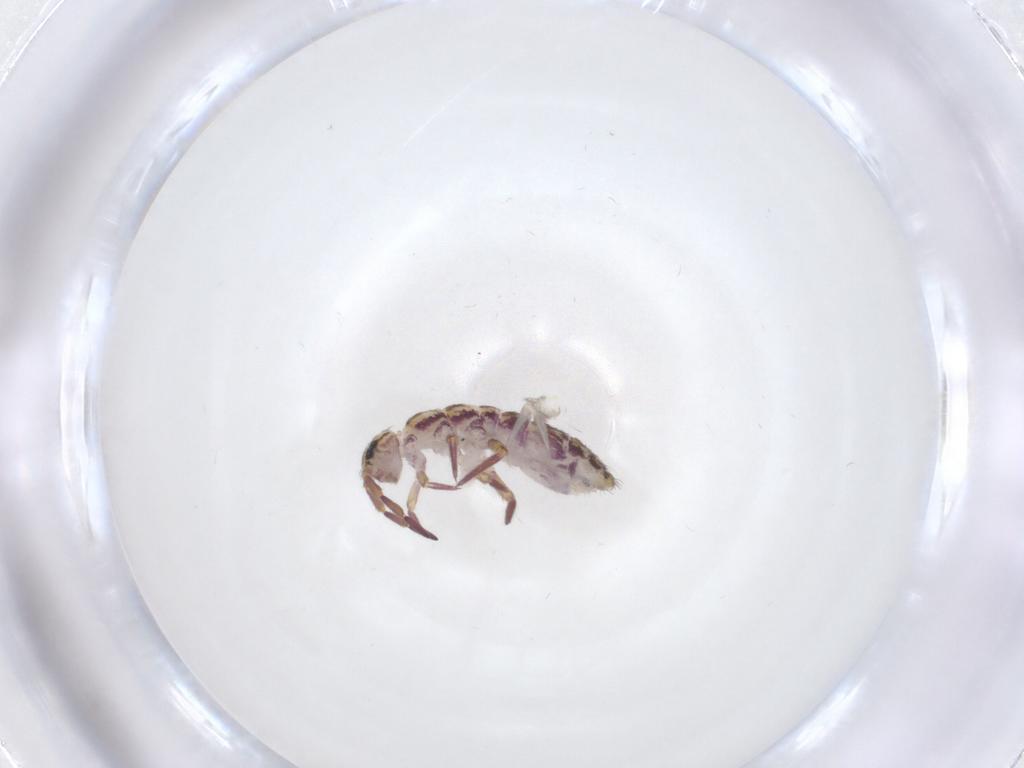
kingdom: Animalia
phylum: Arthropoda
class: Collembola
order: Entomobryomorpha
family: Isotomidae
